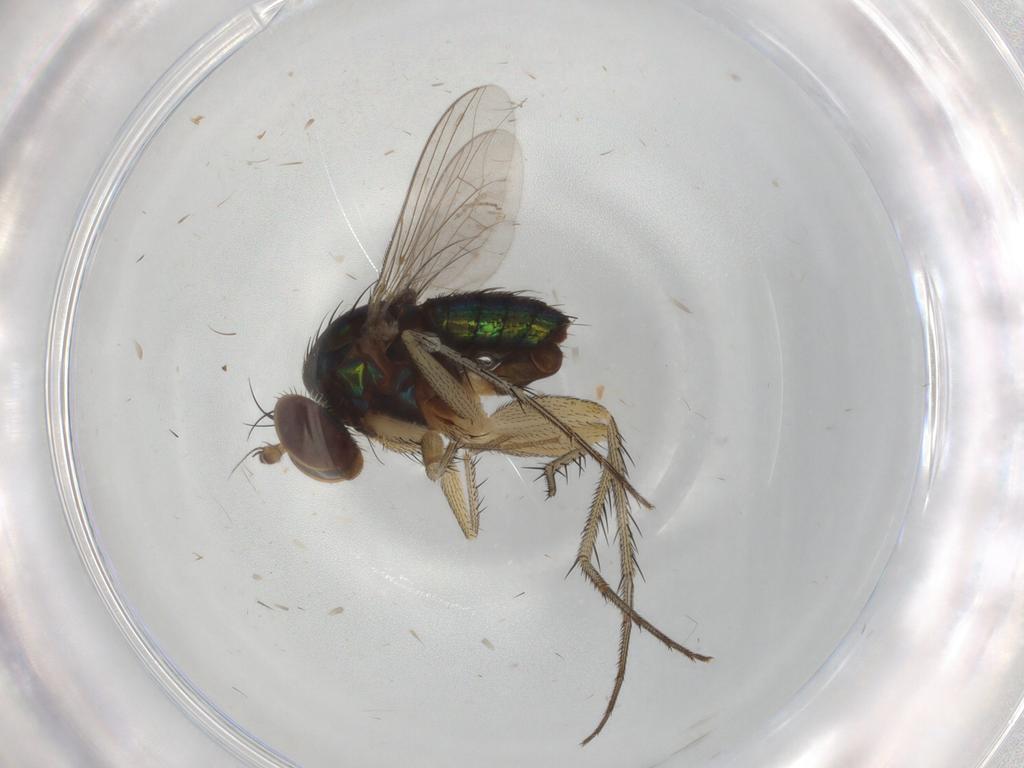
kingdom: Animalia
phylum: Arthropoda
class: Insecta
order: Diptera
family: Dolichopodidae
